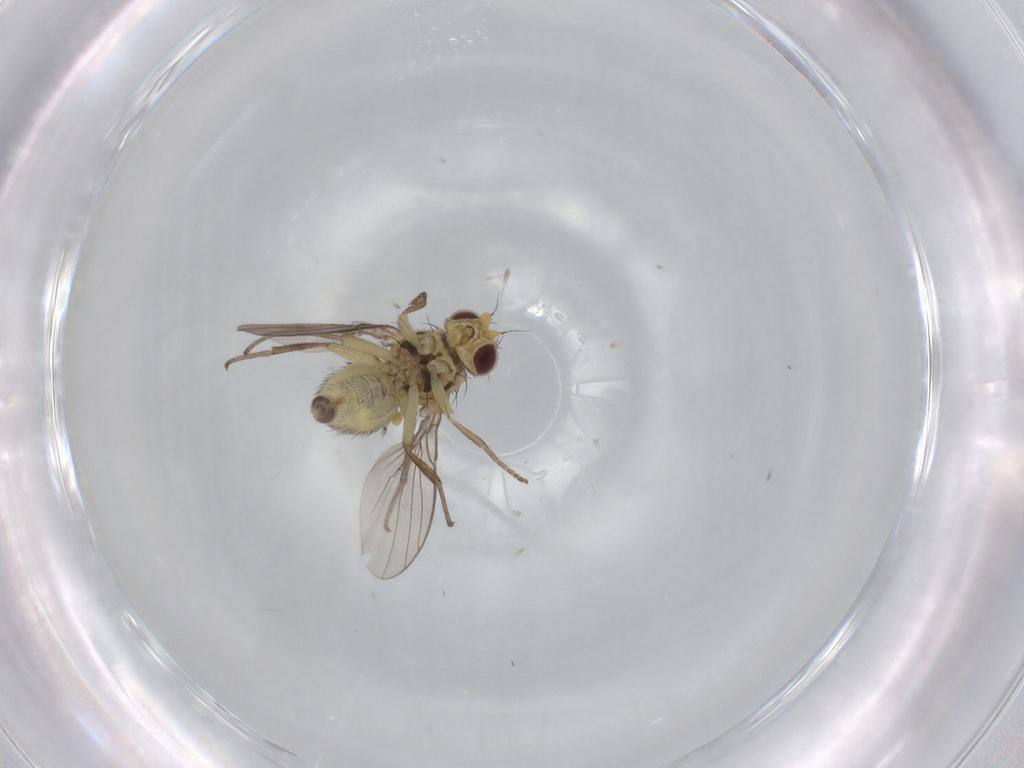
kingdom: Animalia
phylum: Arthropoda
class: Insecta
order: Diptera
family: Agromyzidae
